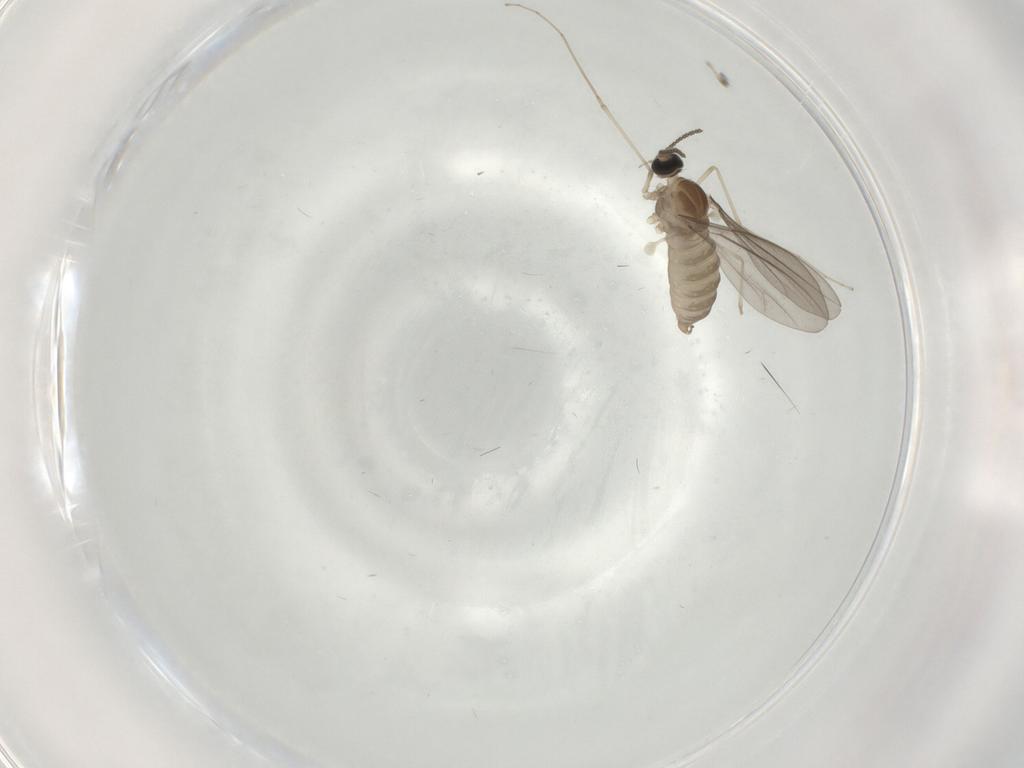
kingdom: Animalia
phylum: Arthropoda
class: Insecta
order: Diptera
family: Cecidomyiidae
